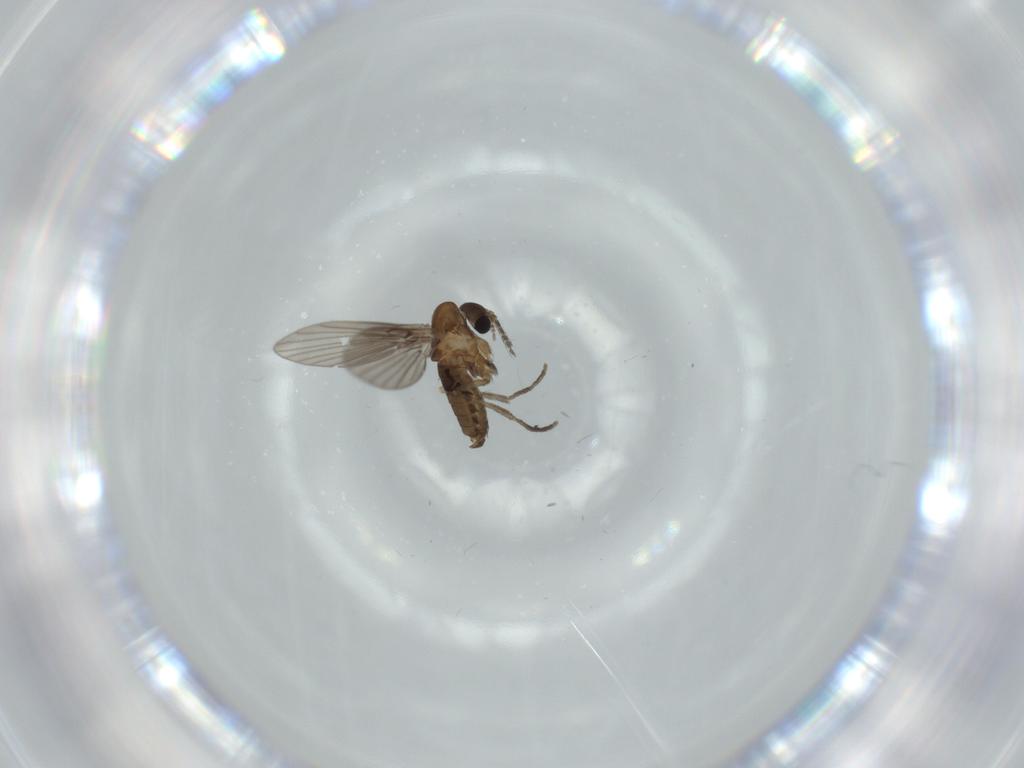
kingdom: Animalia
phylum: Arthropoda
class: Insecta
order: Diptera
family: Psychodidae
